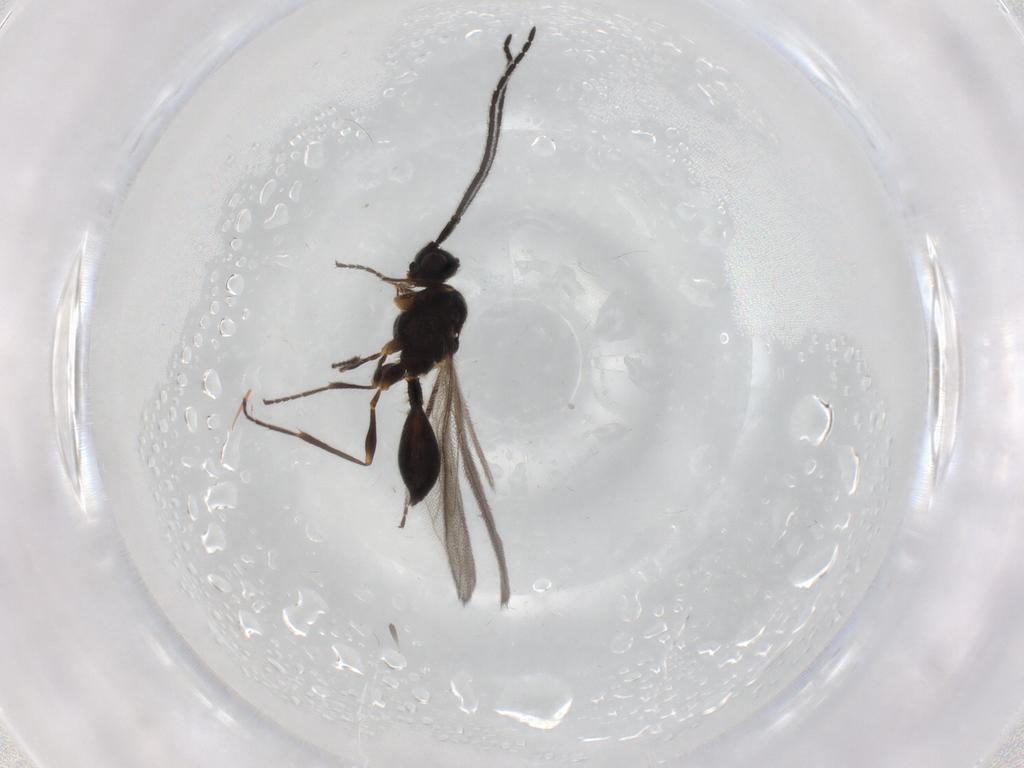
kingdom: Animalia
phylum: Arthropoda
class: Insecta
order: Hymenoptera
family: Diapriidae
